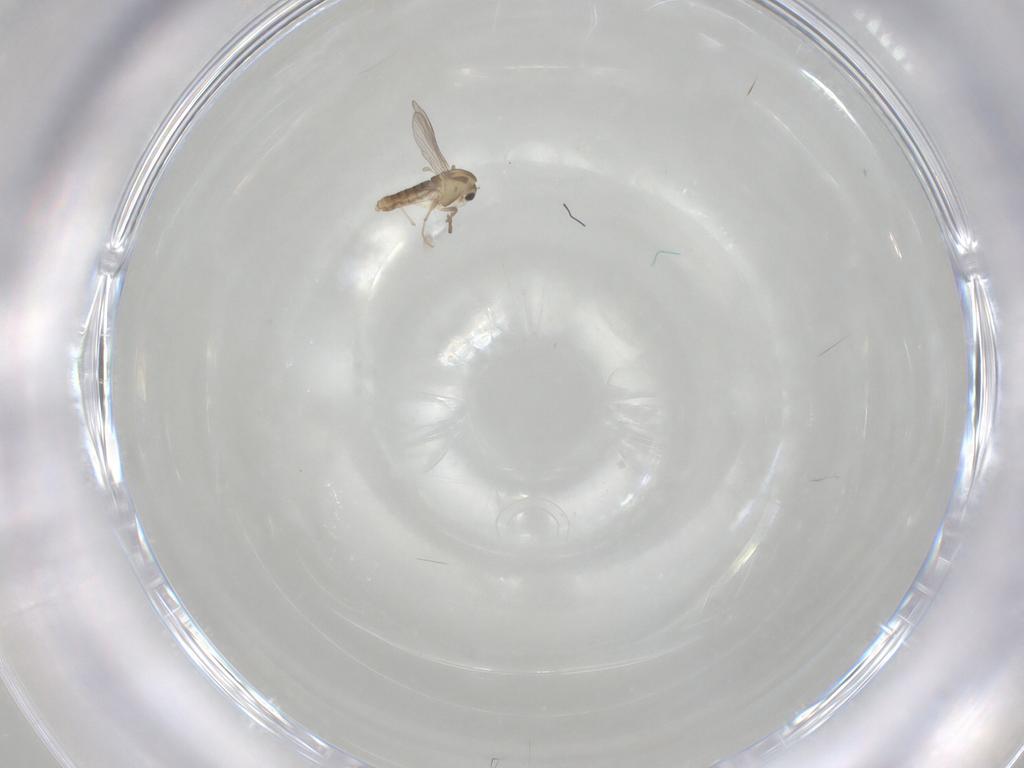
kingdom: Animalia
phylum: Arthropoda
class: Insecta
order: Diptera
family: Chironomidae
